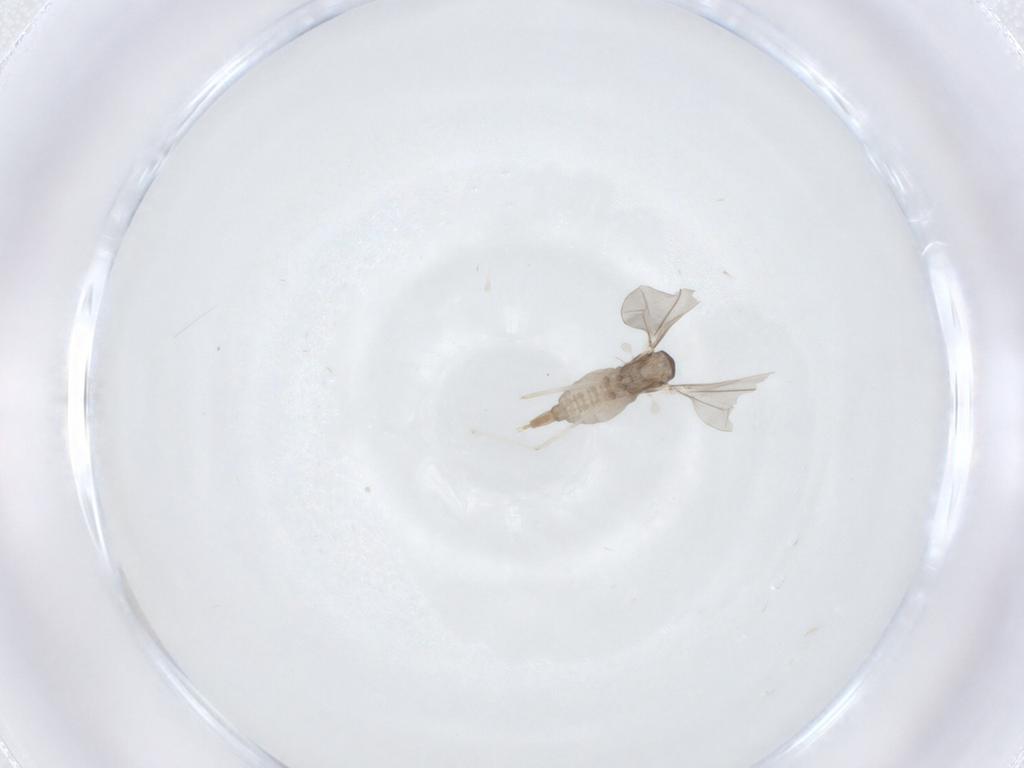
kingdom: Animalia
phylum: Arthropoda
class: Insecta
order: Diptera
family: Cecidomyiidae
